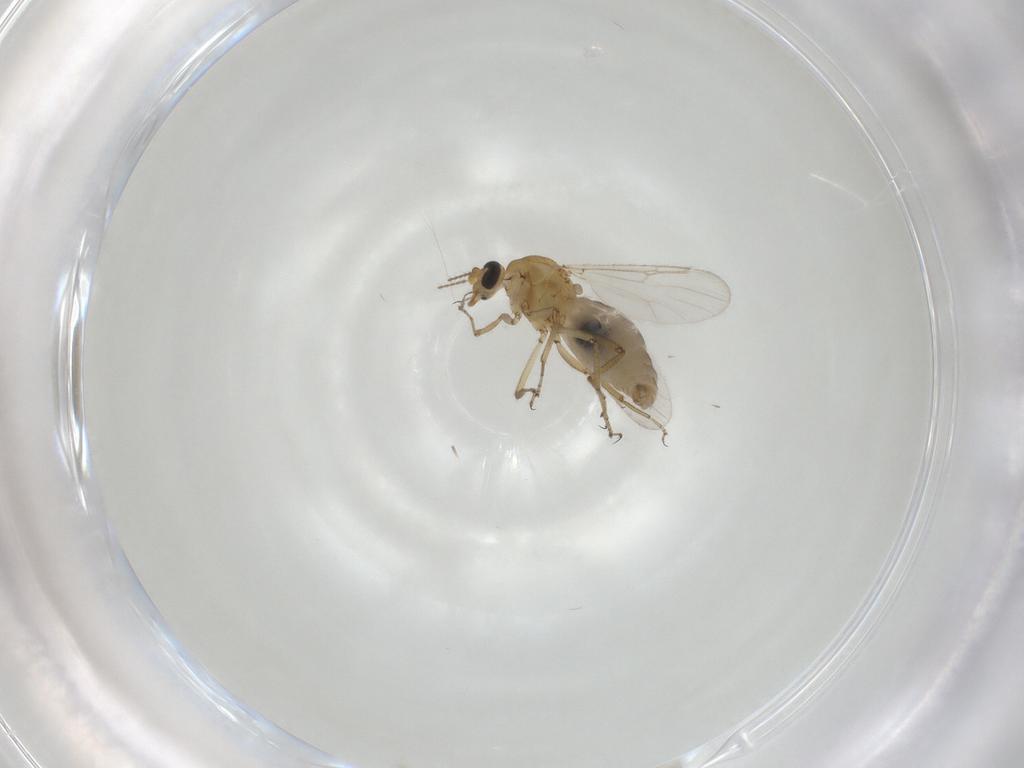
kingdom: Animalia
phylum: Arthropoda
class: Insecta
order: Diptera
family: Ceratopogonidae
